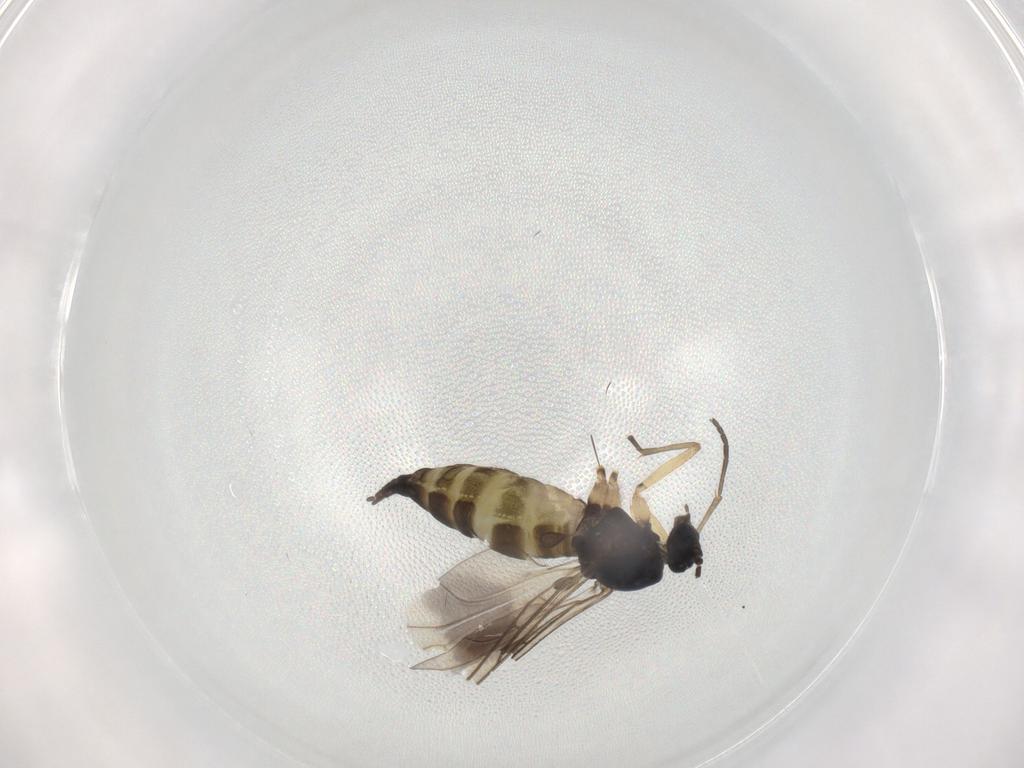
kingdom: Animalia
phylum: Arthropoda
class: Insecta
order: Diptera
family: Sciaridae
